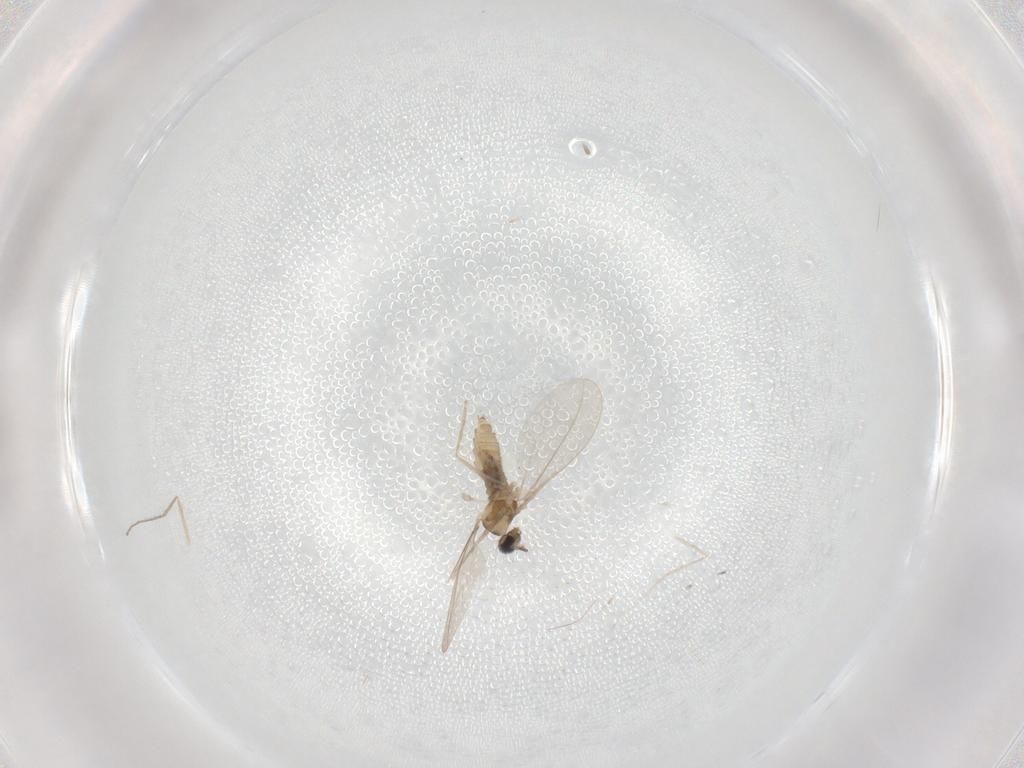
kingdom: Animalia
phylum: Arthropoda
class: Insecta
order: Diptera
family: Cecidomyiidae
